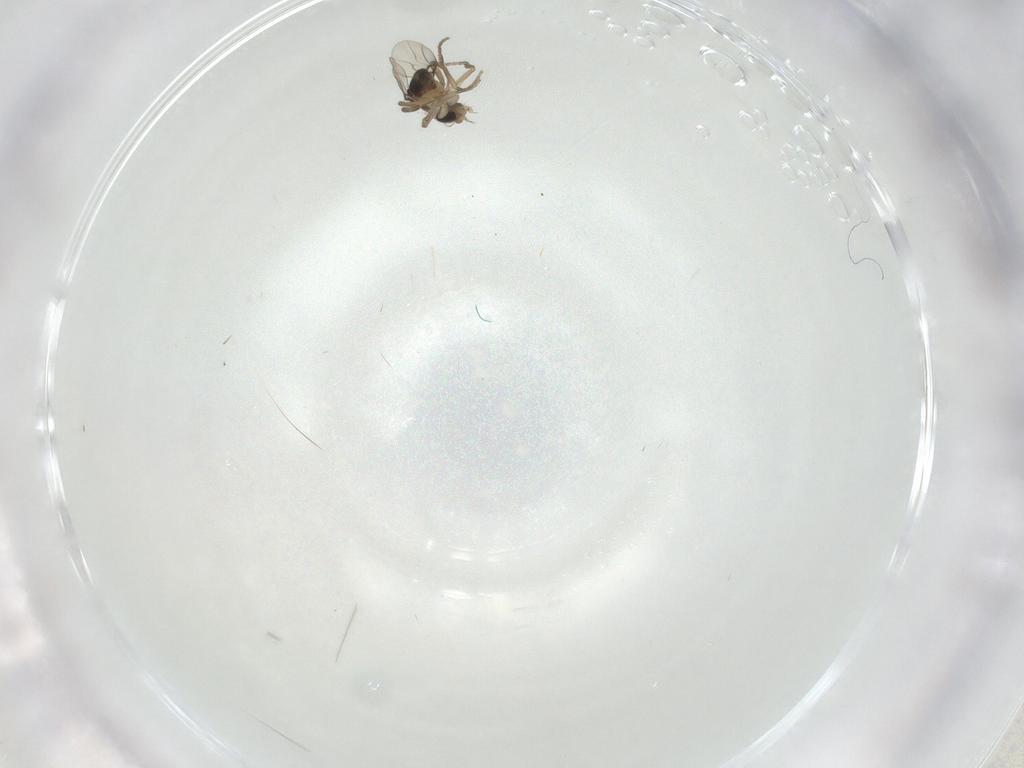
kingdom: Animalia
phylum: Arthropoda
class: Insecta
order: Diptera
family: Phoridae
